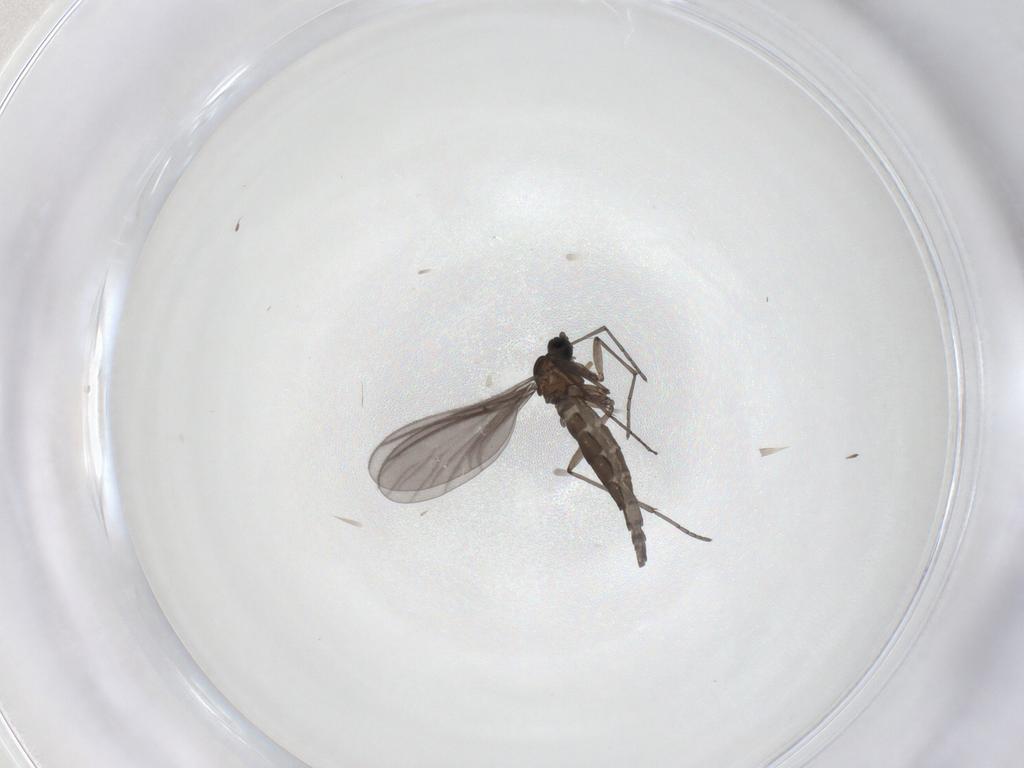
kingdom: Animalia
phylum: Arthropoda
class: Insecta
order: Diptera
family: Sciaridae
